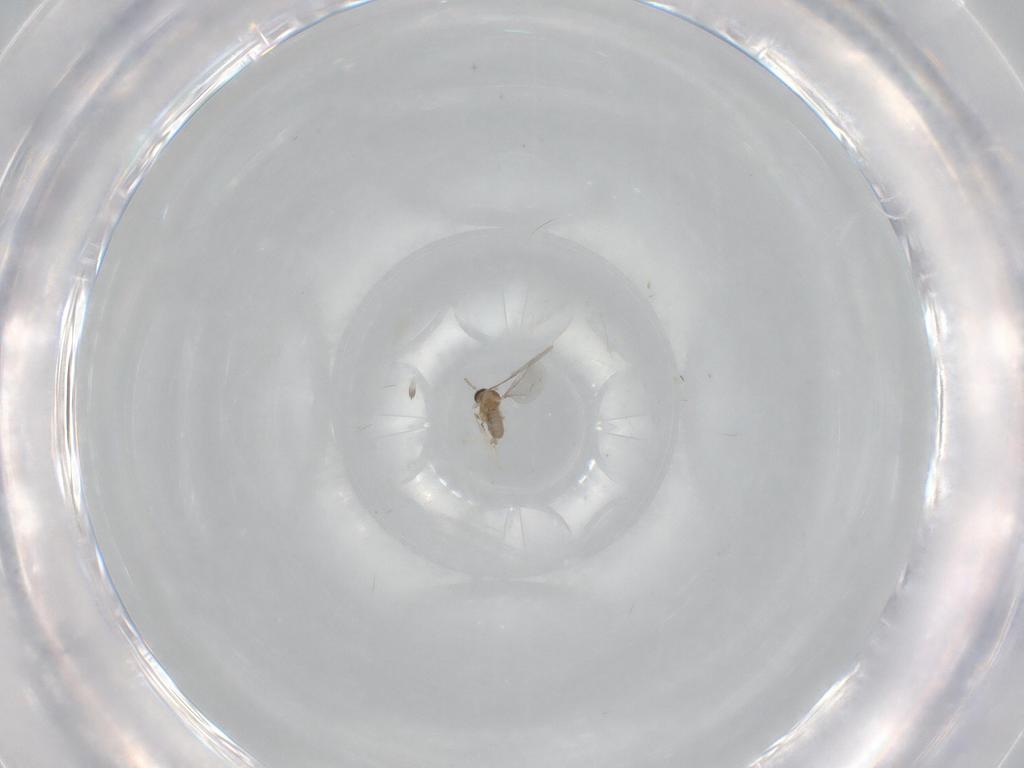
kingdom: Animalia
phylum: Arthropoda
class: Insecta
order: Diptera
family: Cecidomyiidae
